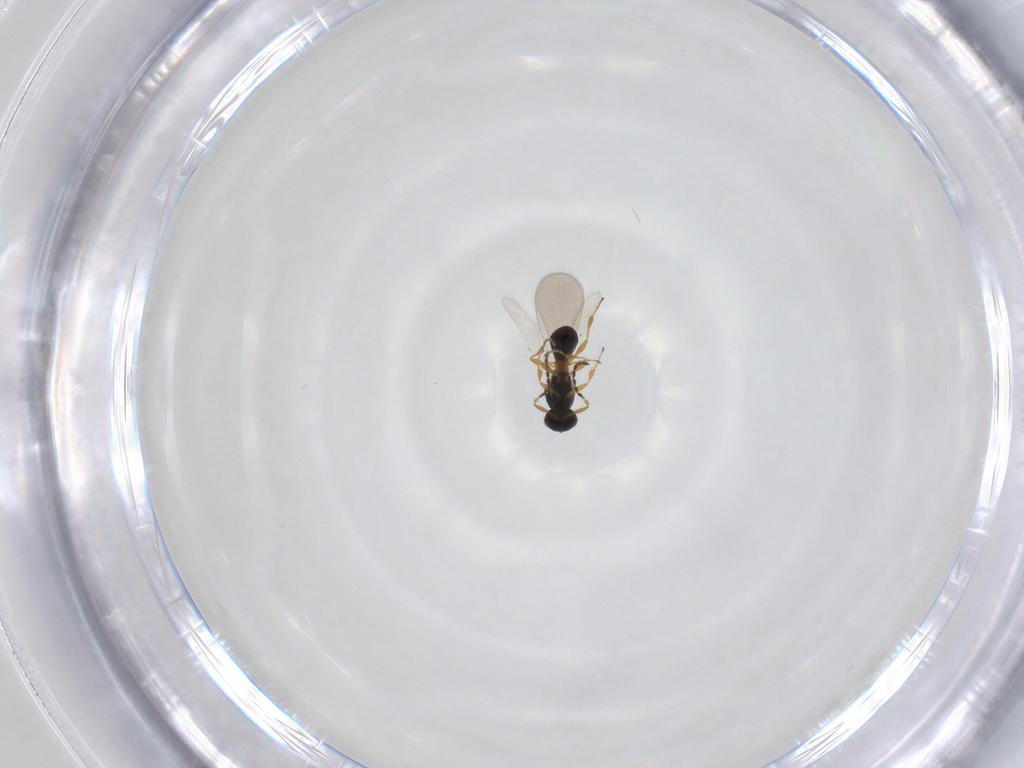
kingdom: Animalia
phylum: Arthropoda
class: Insecta
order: Hymenoptera
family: Platygastridae
